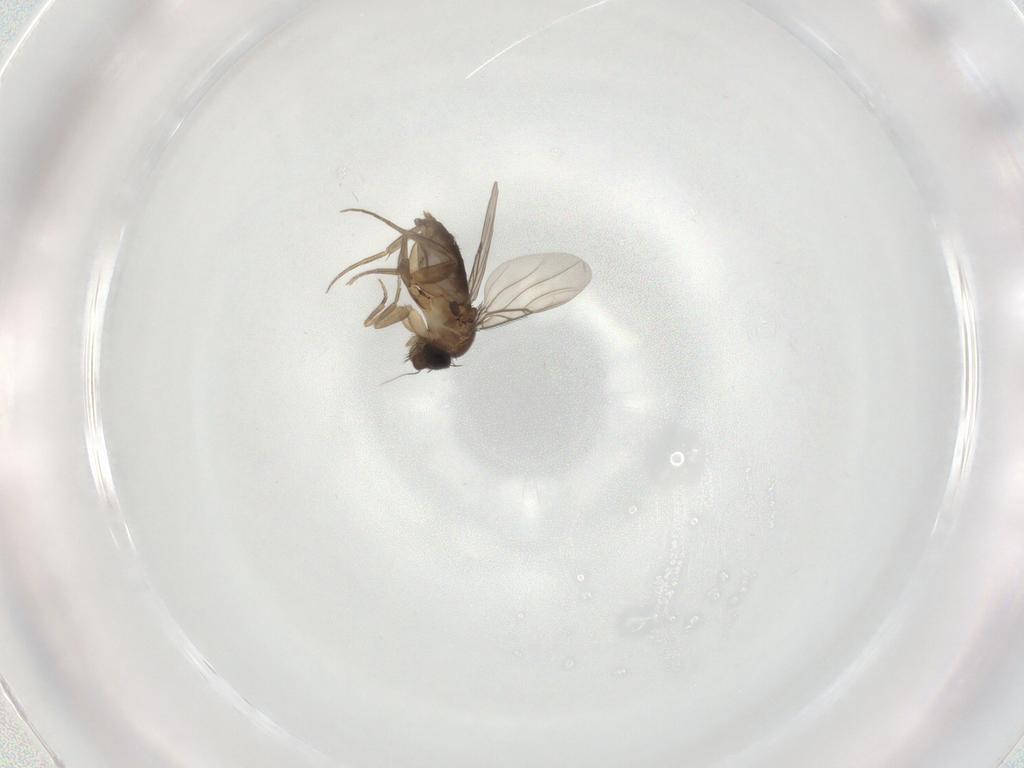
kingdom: Animalia
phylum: Arthropoda
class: Insecta
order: Diptera
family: Phoridae
